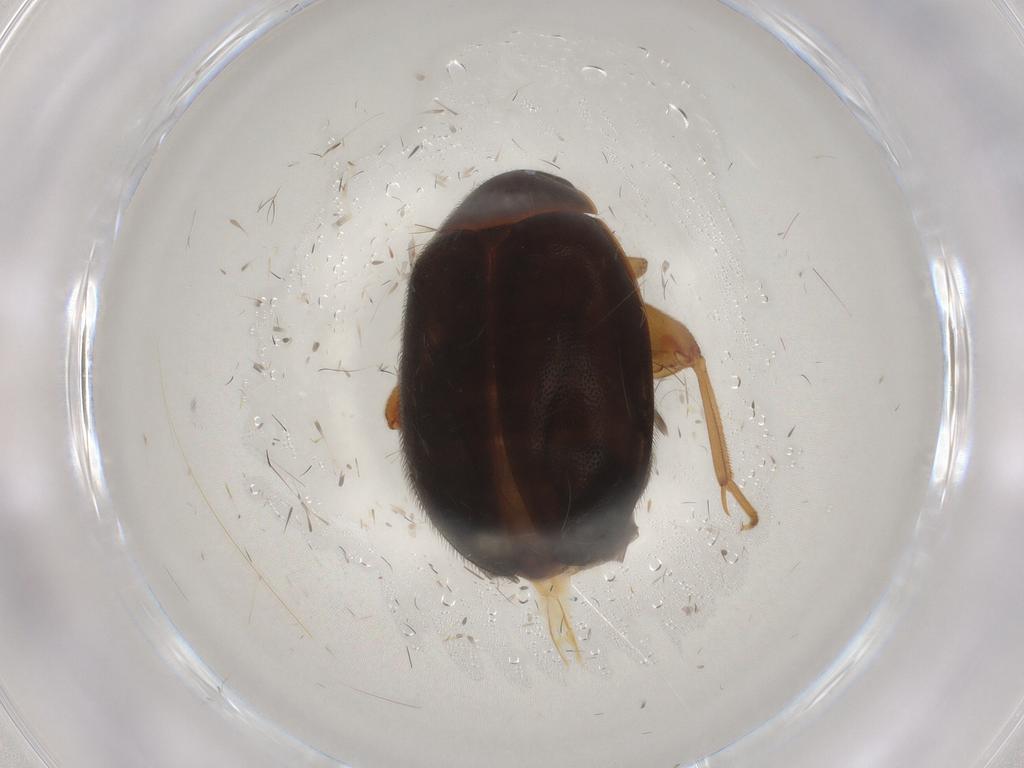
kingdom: Animalia
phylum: Arthropoda
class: Insecta
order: Coleoptera
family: Scirtidae
